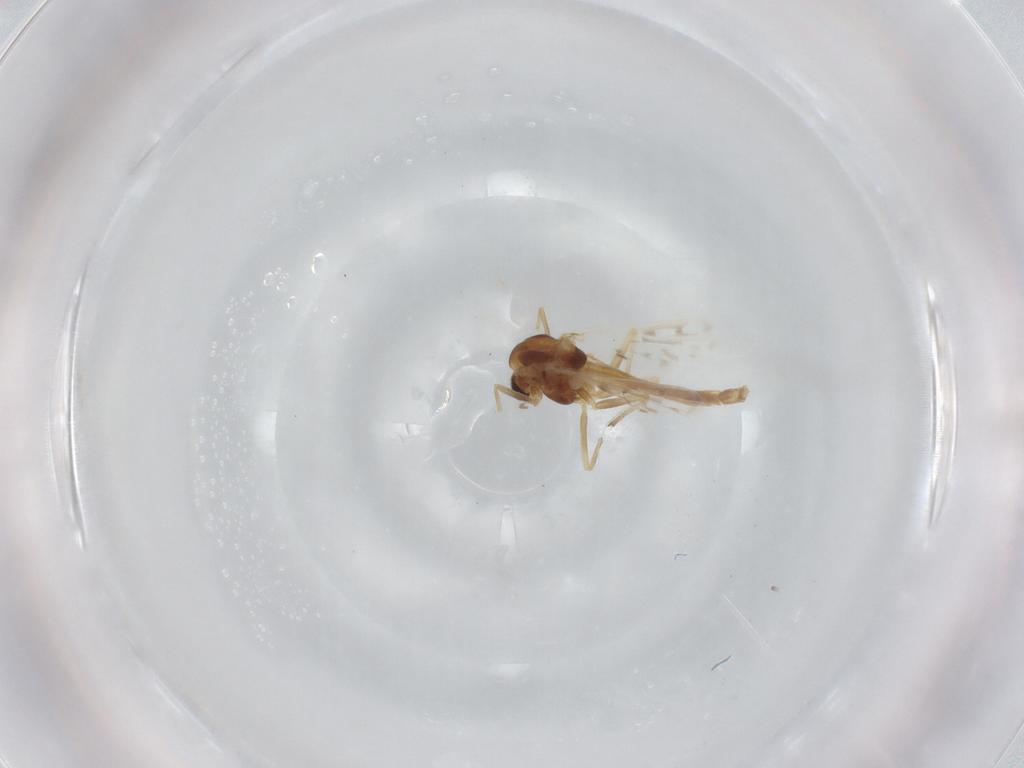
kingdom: Animalia
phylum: Arthropoda
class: Insecta
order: Diptera
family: Chironomidae
